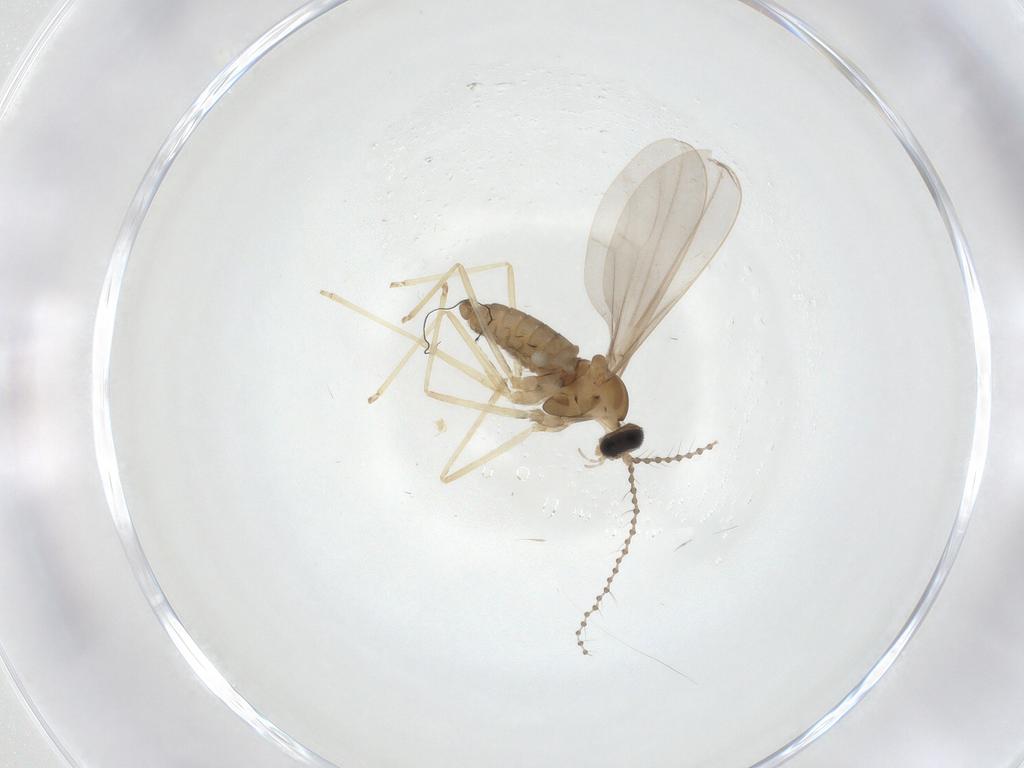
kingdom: Animalia
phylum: Arthropoda
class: Insecta
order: Diptera
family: Cecidomyiidae
